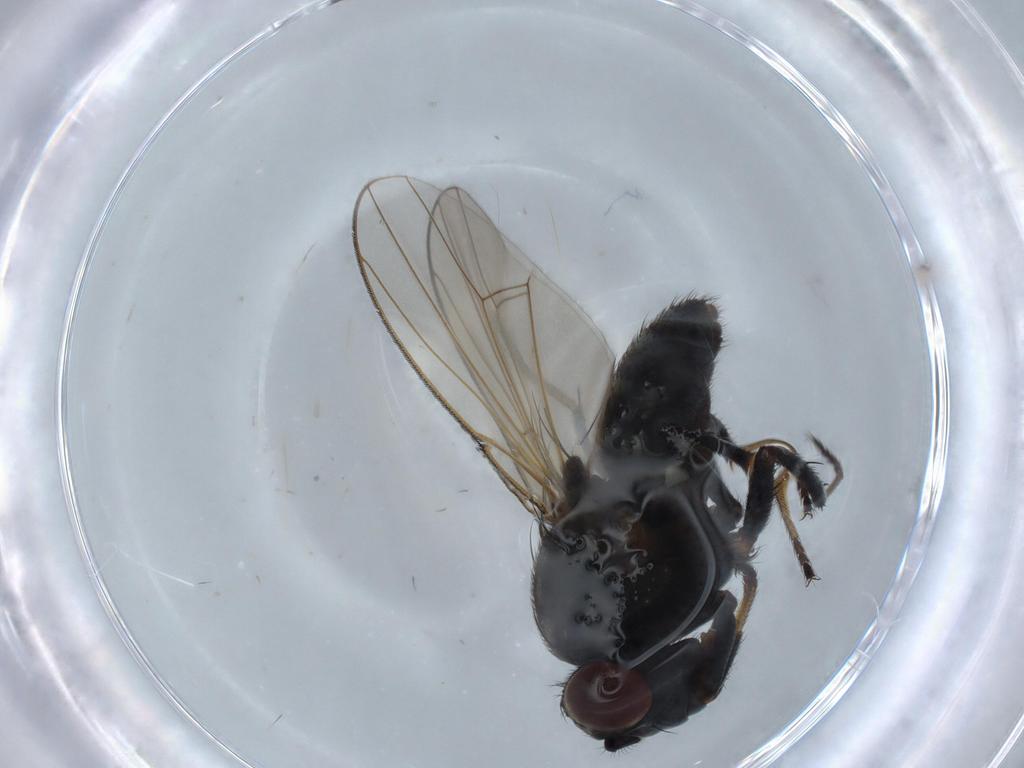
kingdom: Animalia
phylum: Arthropoda
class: Insecta
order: Diptera
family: Ephydridae
